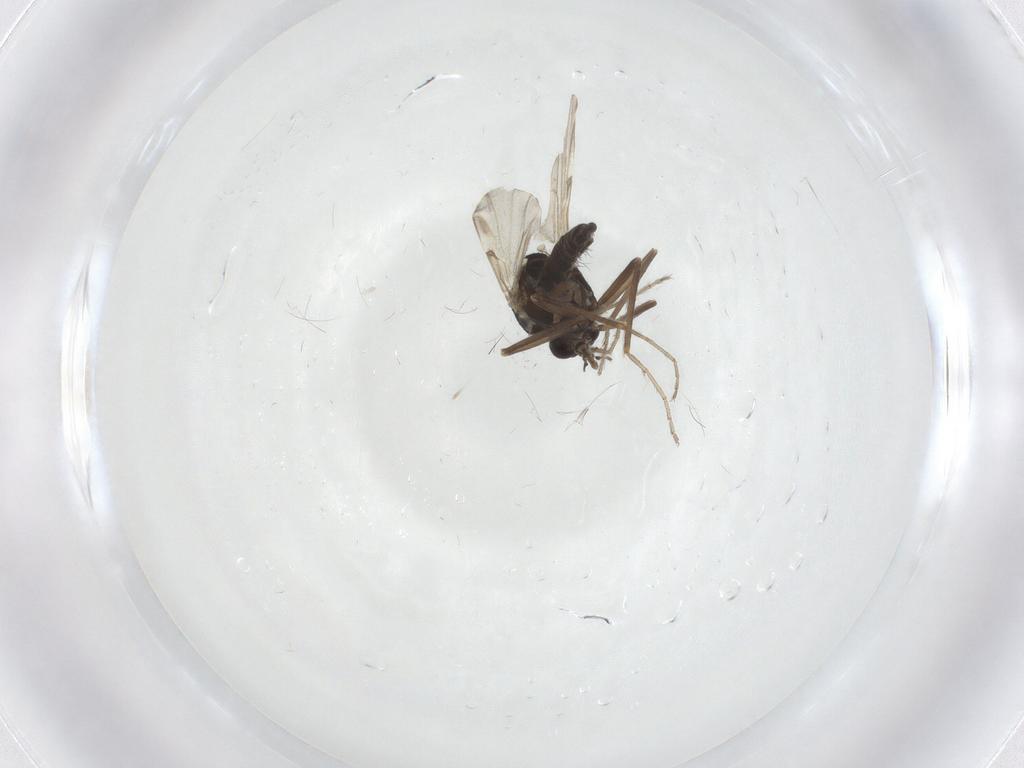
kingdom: Animalia
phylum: Arthropoda
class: Insecta
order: Diptera
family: Ceratopogonidae
